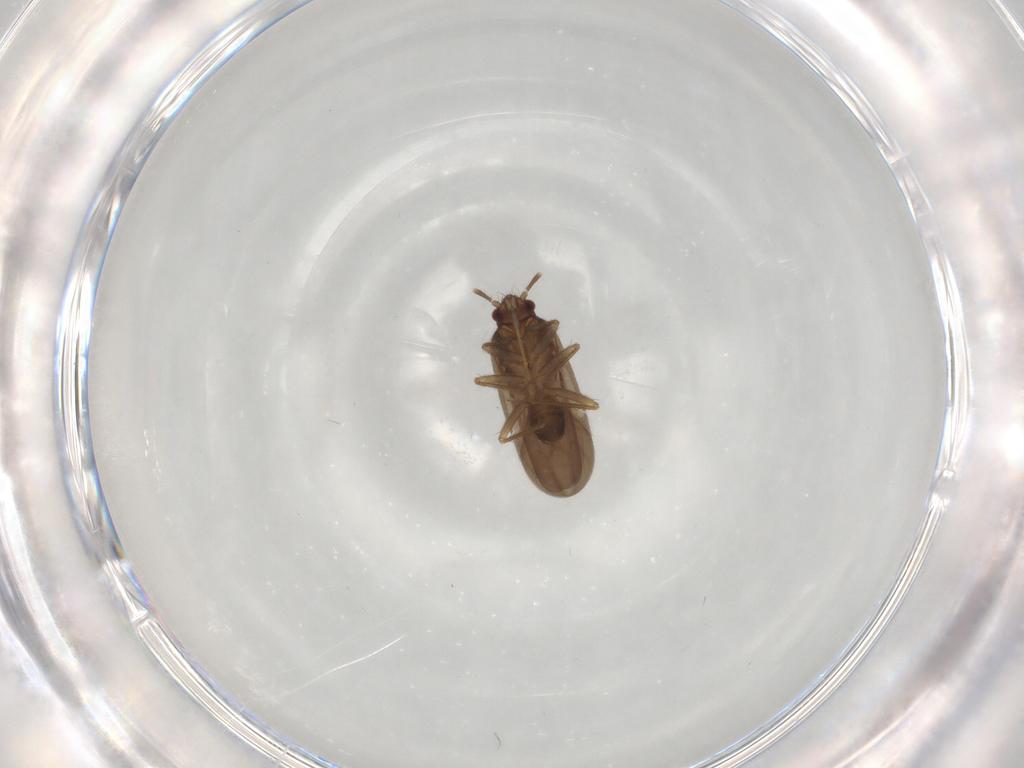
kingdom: Animalia
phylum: Arthropoda
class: Insecta
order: Hemiptera
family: Ceratocombidae
